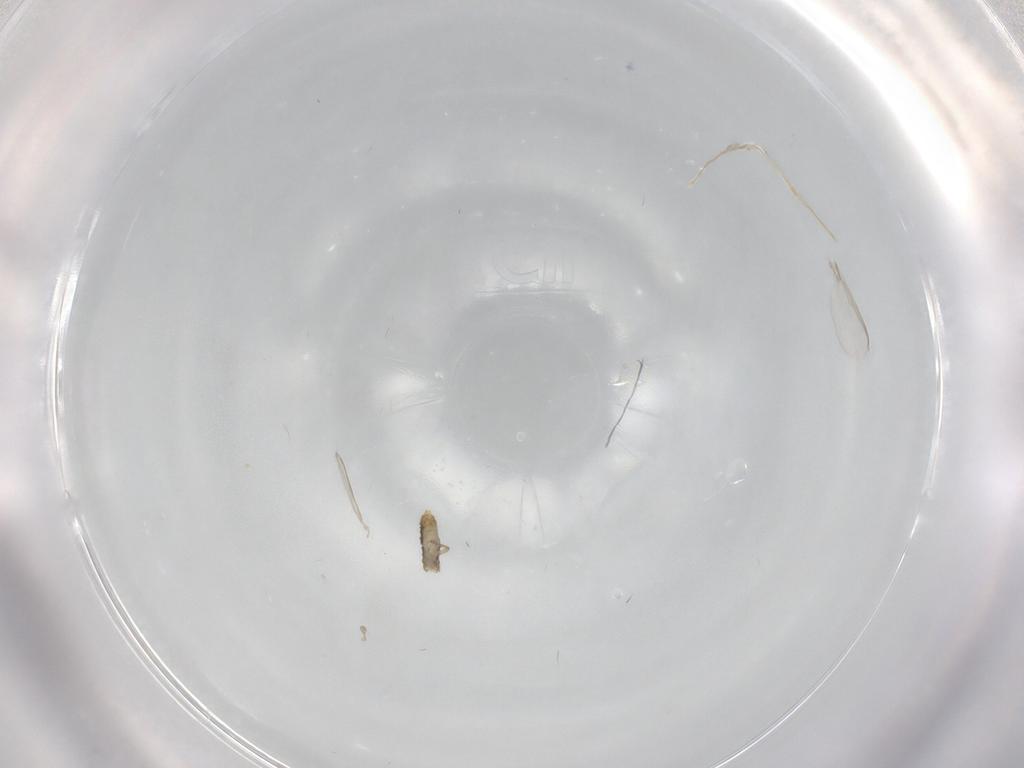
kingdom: Animalia
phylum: Arthropoda
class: Insecta
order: Diptera
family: Chironomidae
